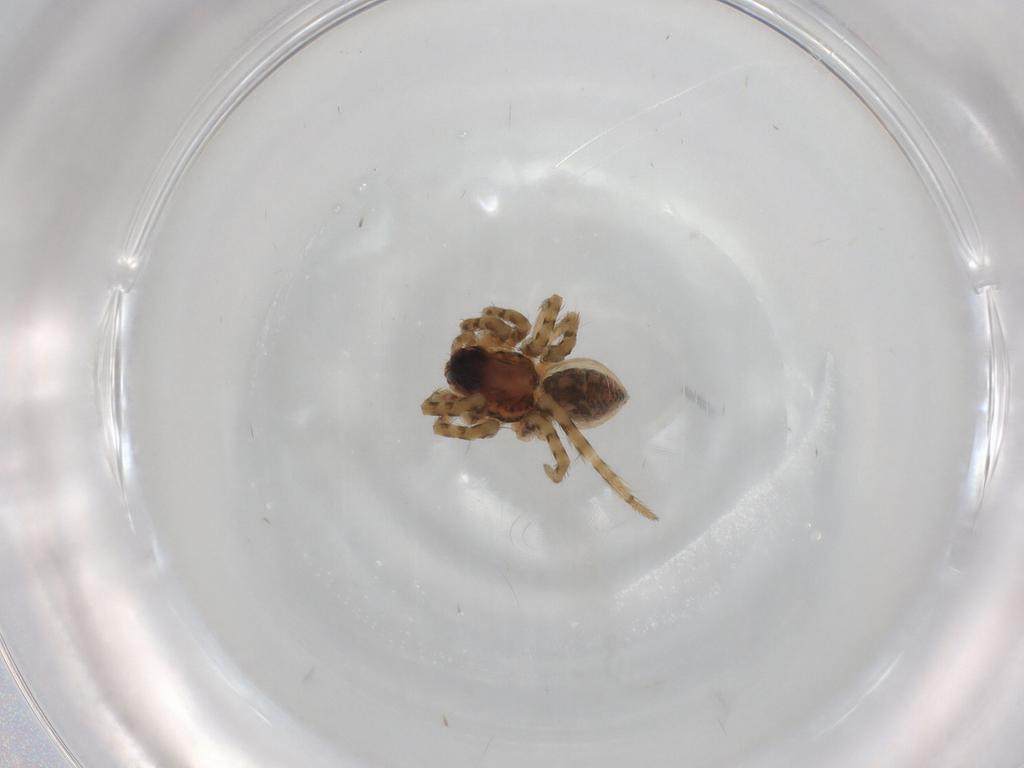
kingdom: Animalia
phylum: Arthropoda
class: Arachnida
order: Araneae
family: Lycosidae
